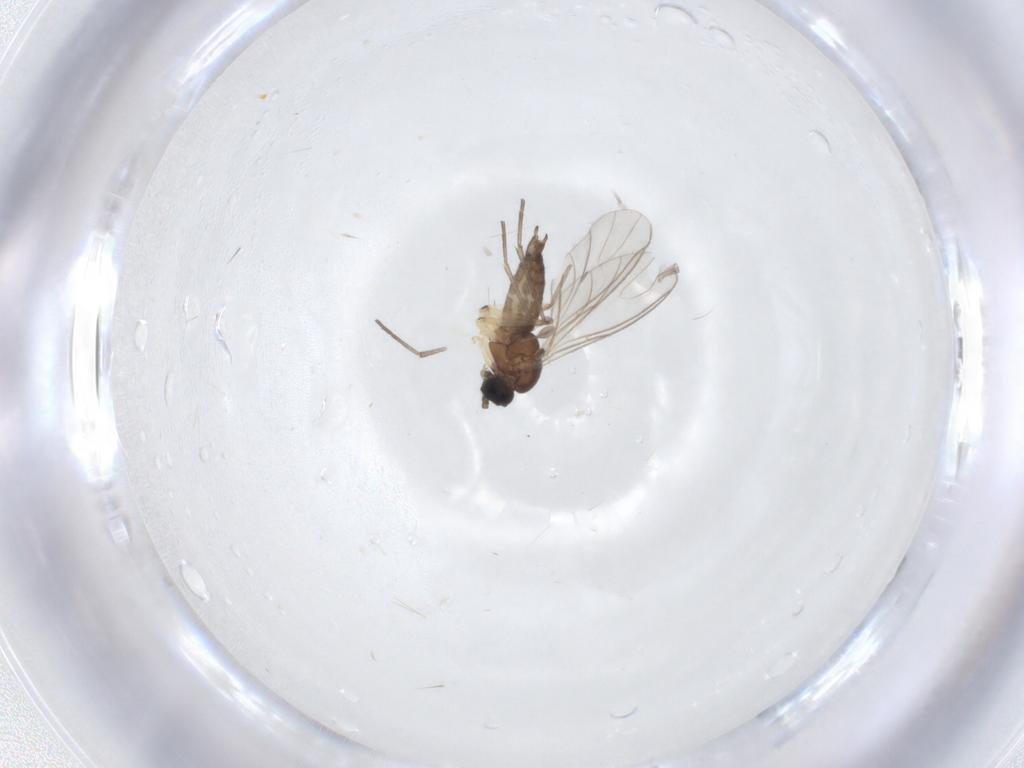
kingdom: Animalia
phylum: Arthropoda
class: Insecta
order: Diptera
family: Sciaridae
